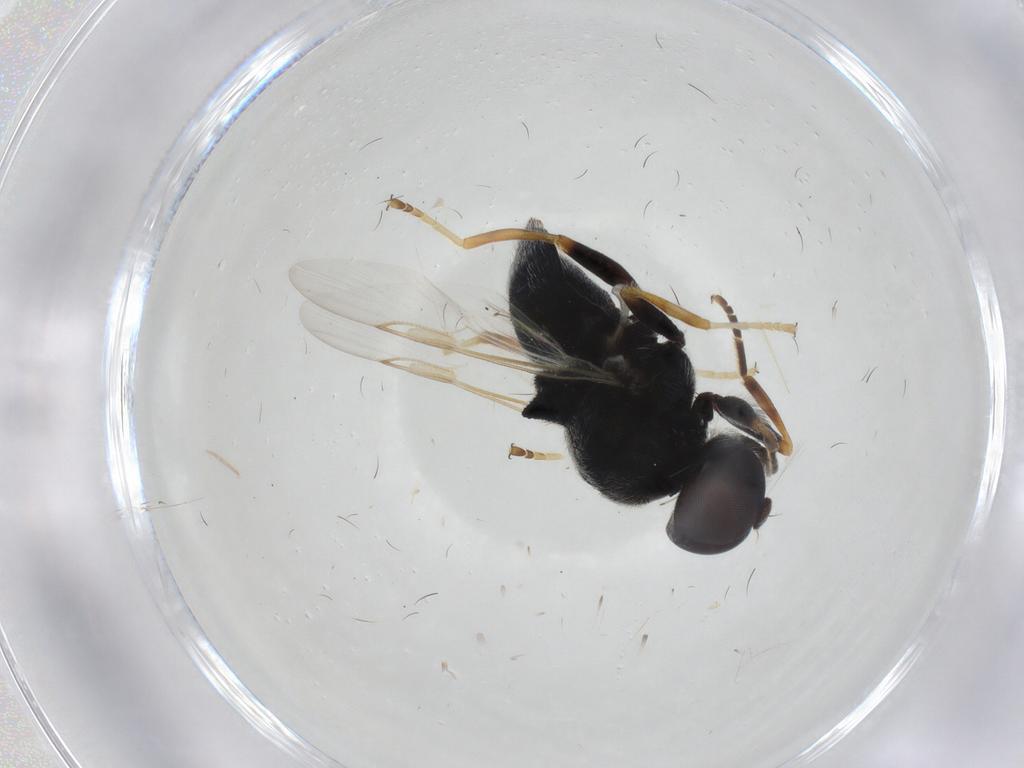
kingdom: Animalia
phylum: Arthropoda
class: Insecta
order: Diptera
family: Stratiomyidae
